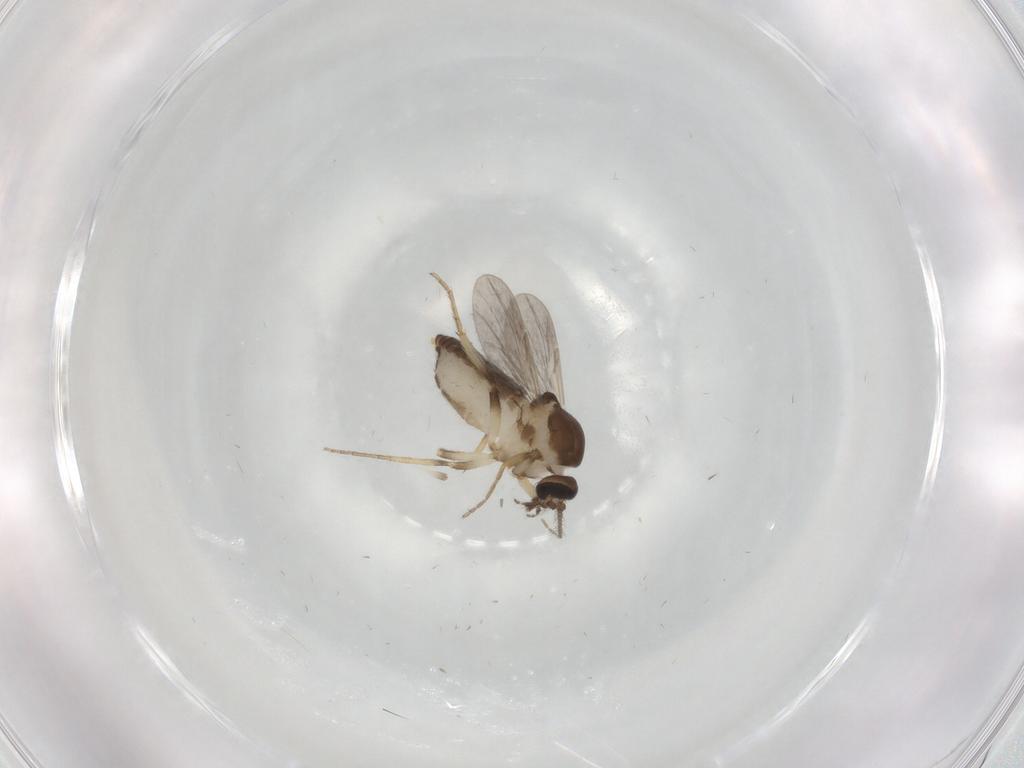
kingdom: Animalia
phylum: Arthropoda
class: Insecta
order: Diptera
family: Ceratopogonidae
